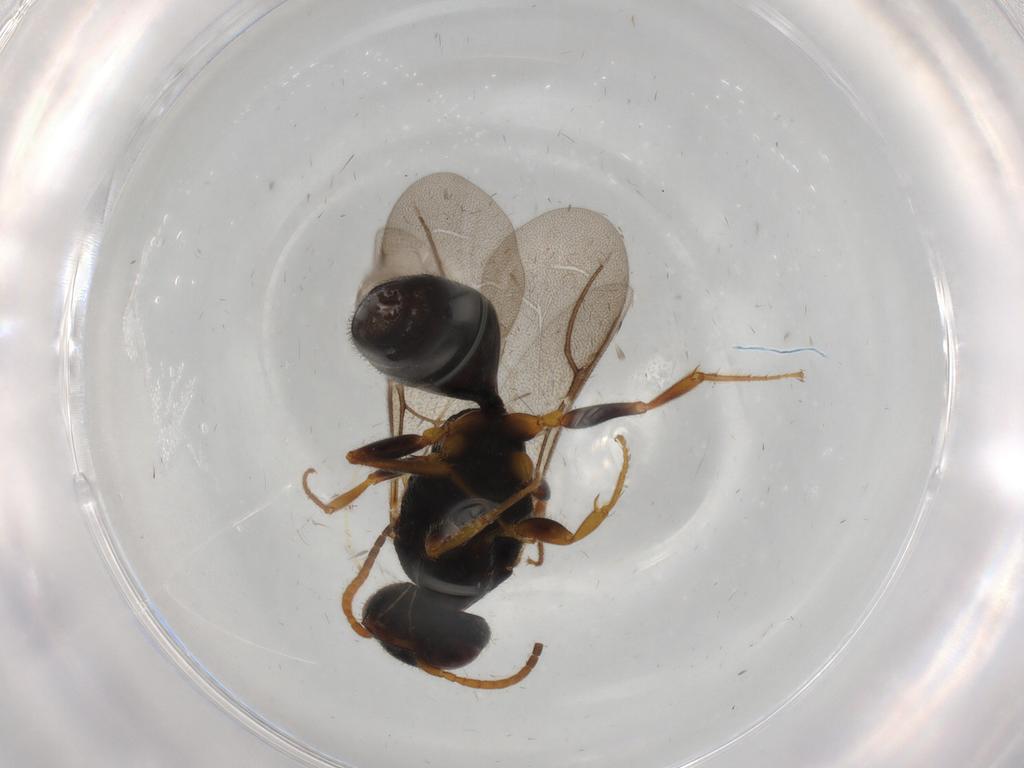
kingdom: Animalia
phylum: Arthropoda
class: Insecta
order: Hymenoptera
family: Bethylidae
